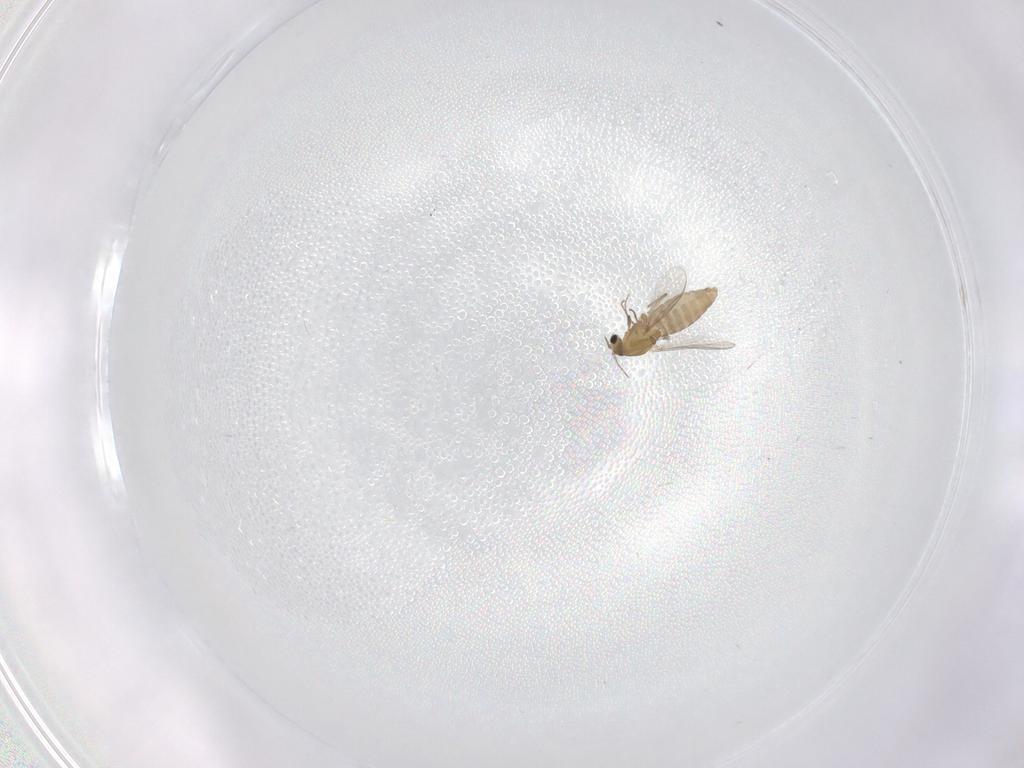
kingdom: Animalia
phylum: Arthropoda
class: Insecta
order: Diptera
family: Chironomidae
